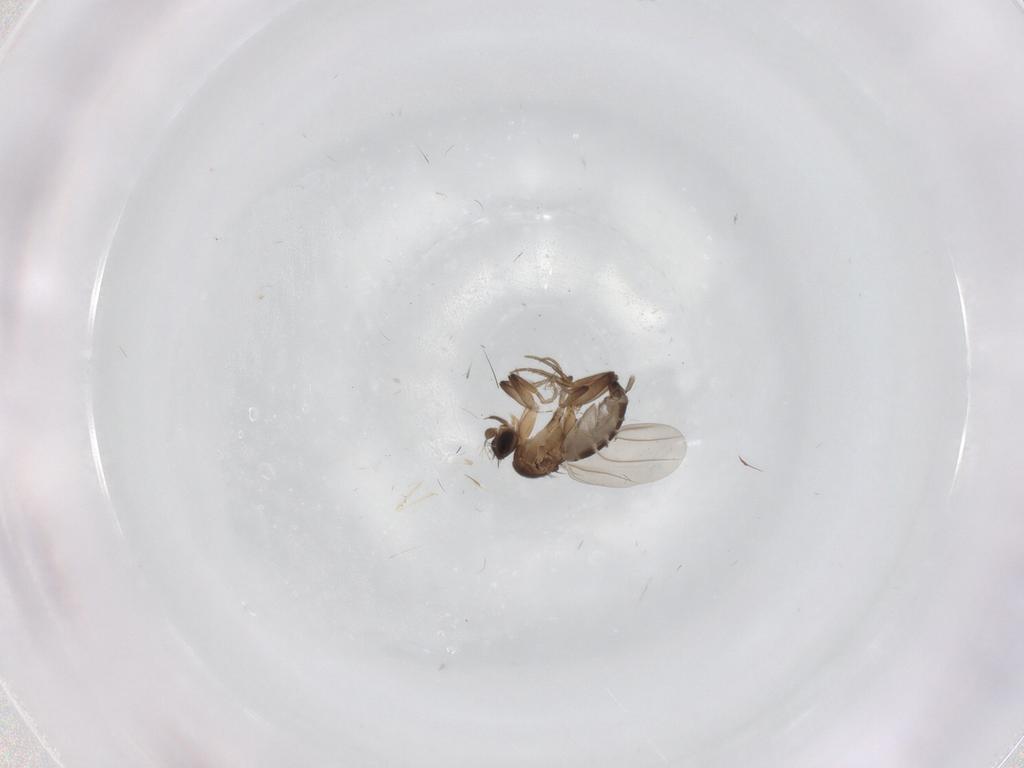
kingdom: Animalia
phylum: Arthropoda
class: Insecta
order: Diptera
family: Phoridae
